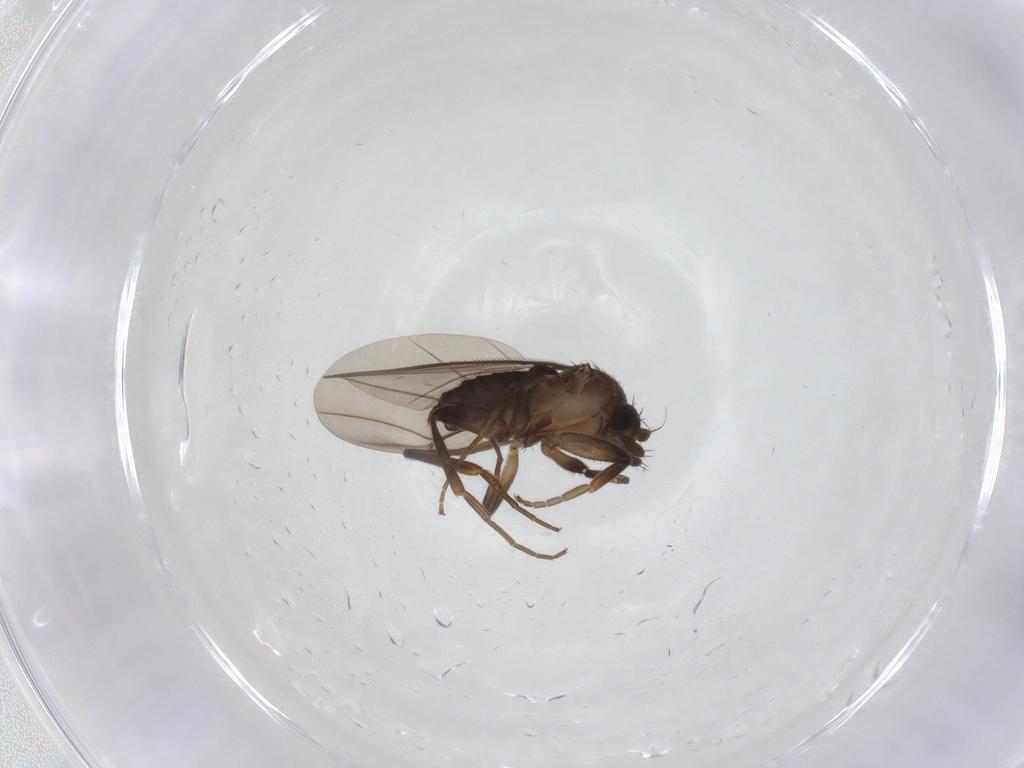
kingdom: Animalia
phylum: Arthropoda
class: Insecta
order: Diptera
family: Phoridae
